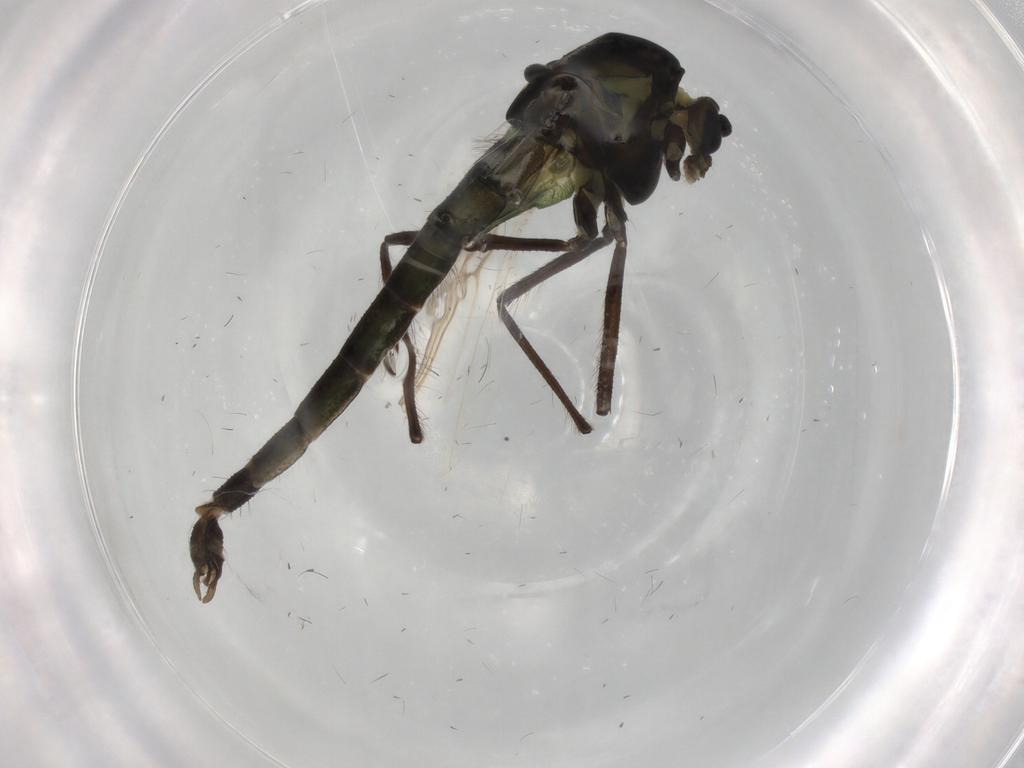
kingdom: Animalia
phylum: Arthropoda
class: Insecta
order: Diptera
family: Chironomidae
